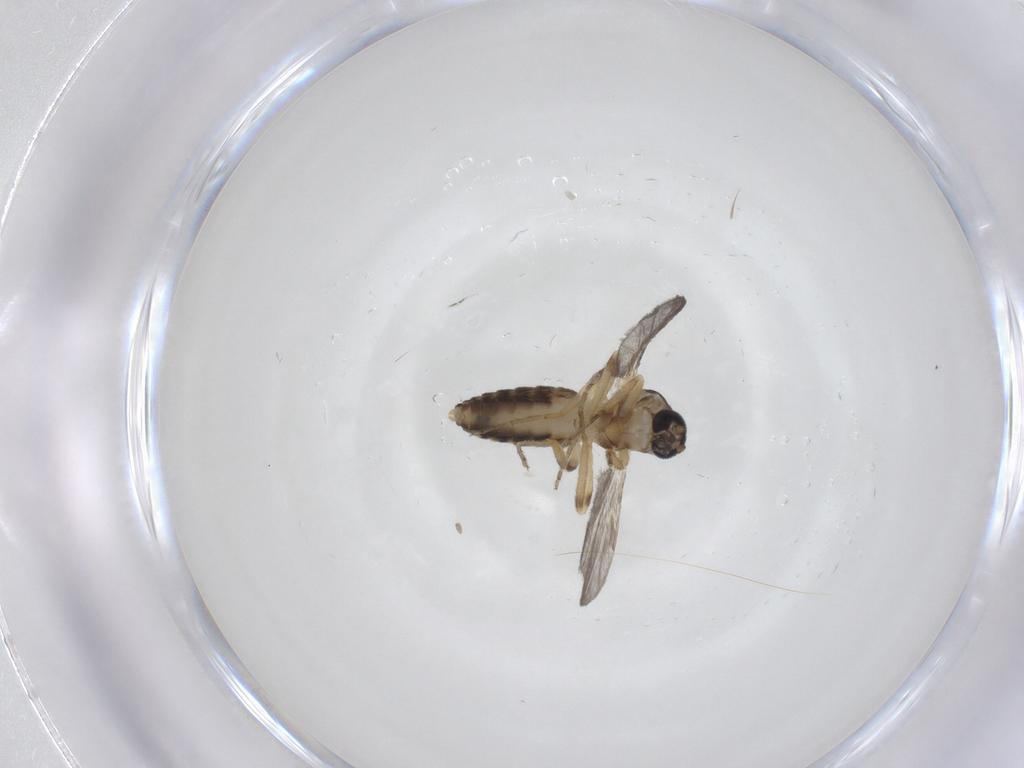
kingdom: Animalia
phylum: Arthropoda
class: Insecta
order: Diptera
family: Ceratopogonidae
